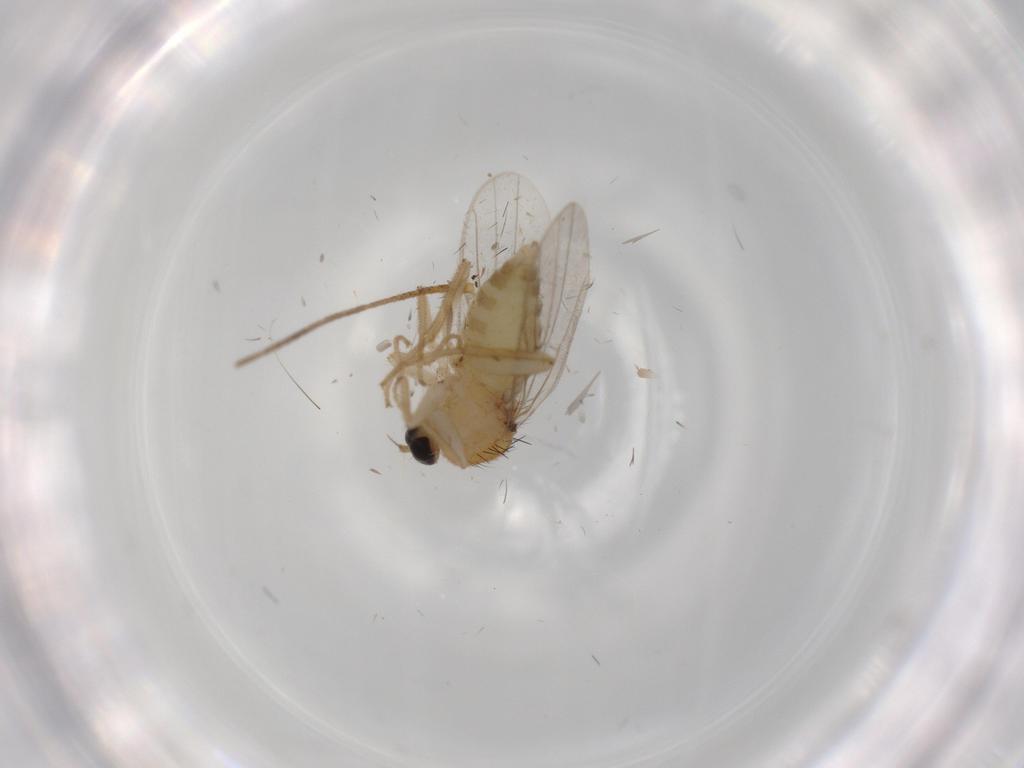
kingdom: Animalia
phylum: Arthropoda
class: Insecta
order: Diptera
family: Hybotidae
